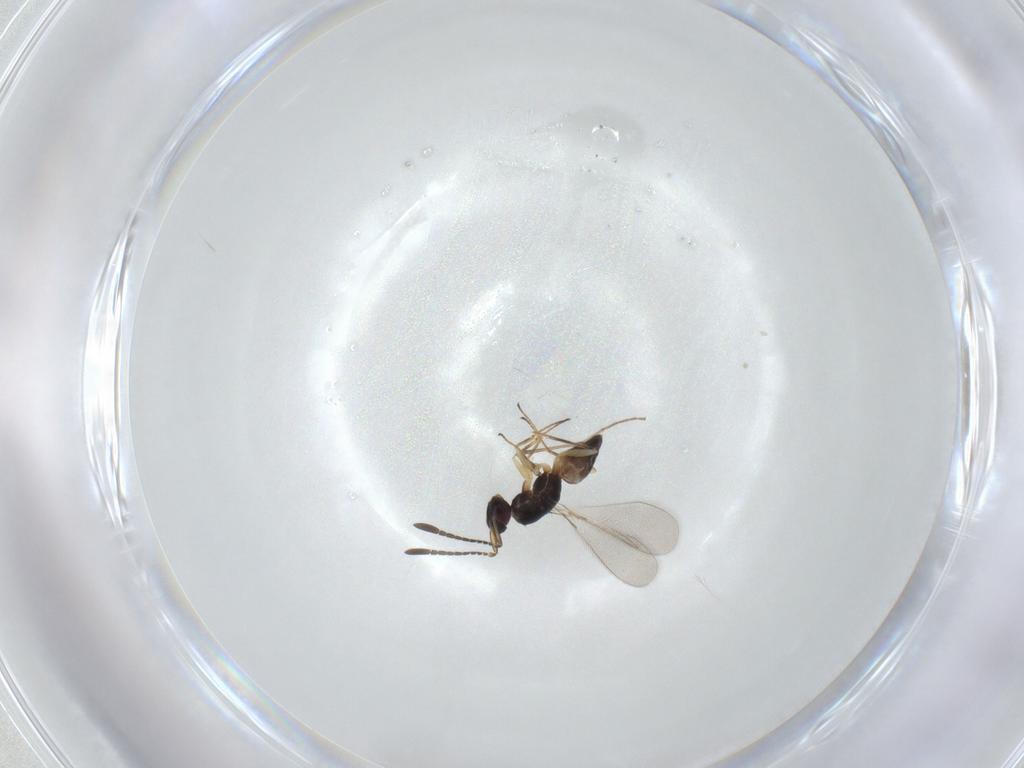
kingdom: Animalia
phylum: Arthropoda
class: Insecta
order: Hymenoptera
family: Mymaridae
